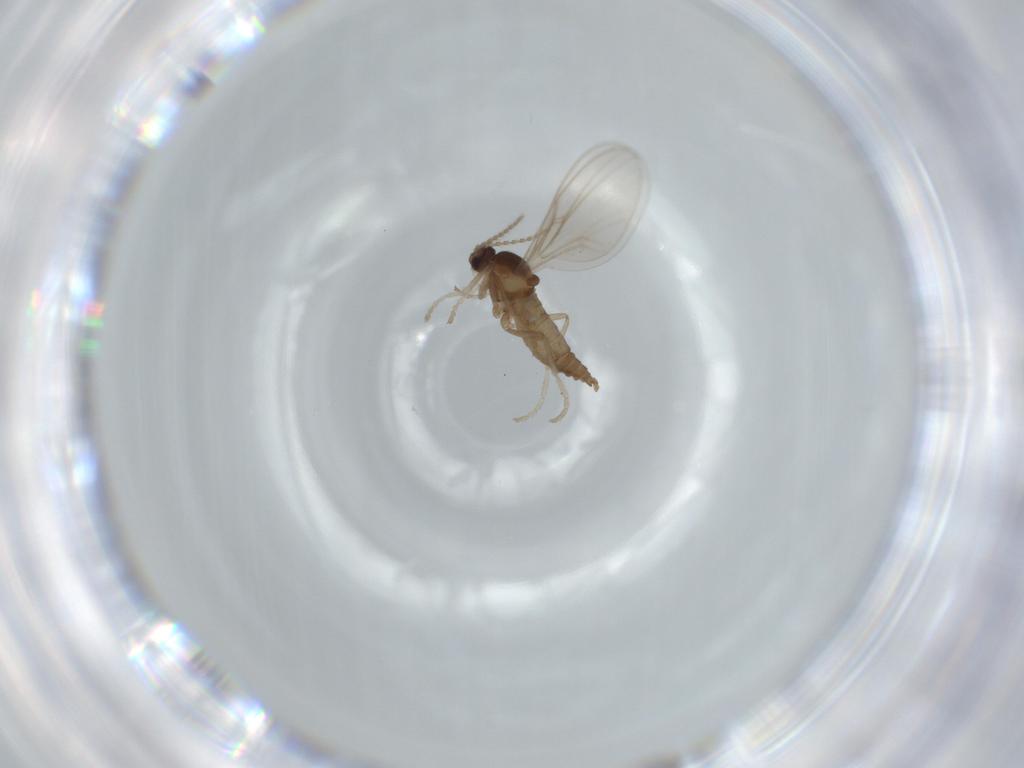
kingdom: Animalia
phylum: Arthropoda
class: Insecta
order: Diptera
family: Cecidomyiidae
